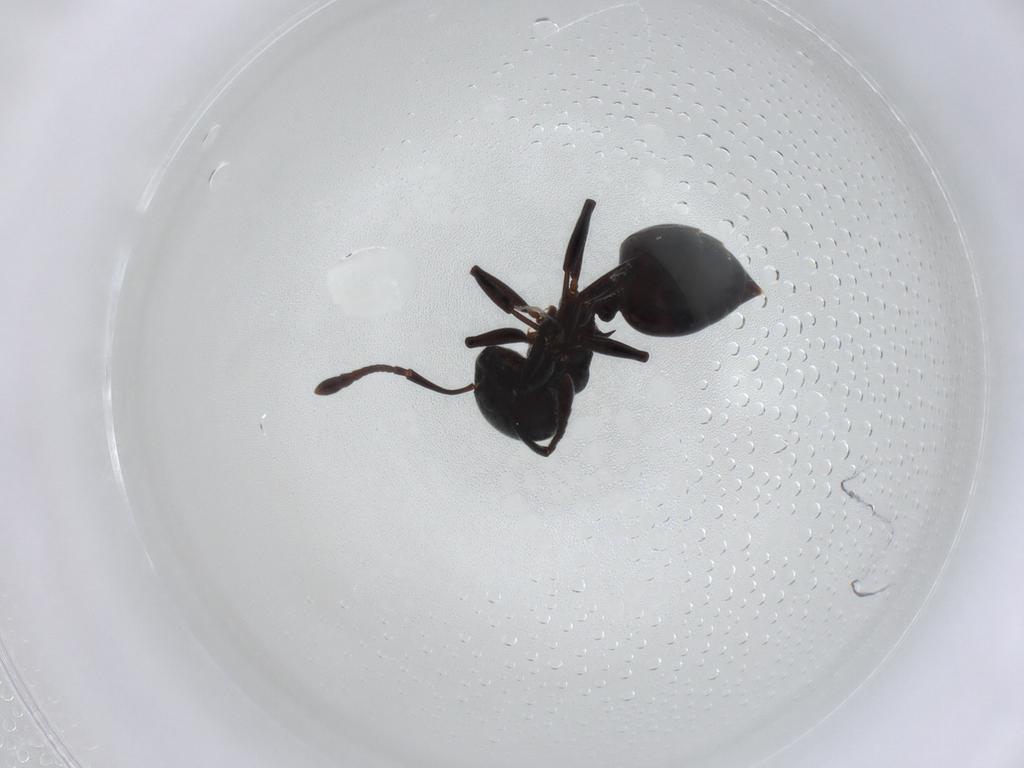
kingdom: Animalia
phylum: Arthropoda
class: Insecta
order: Hymenoptera
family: Formicidae
